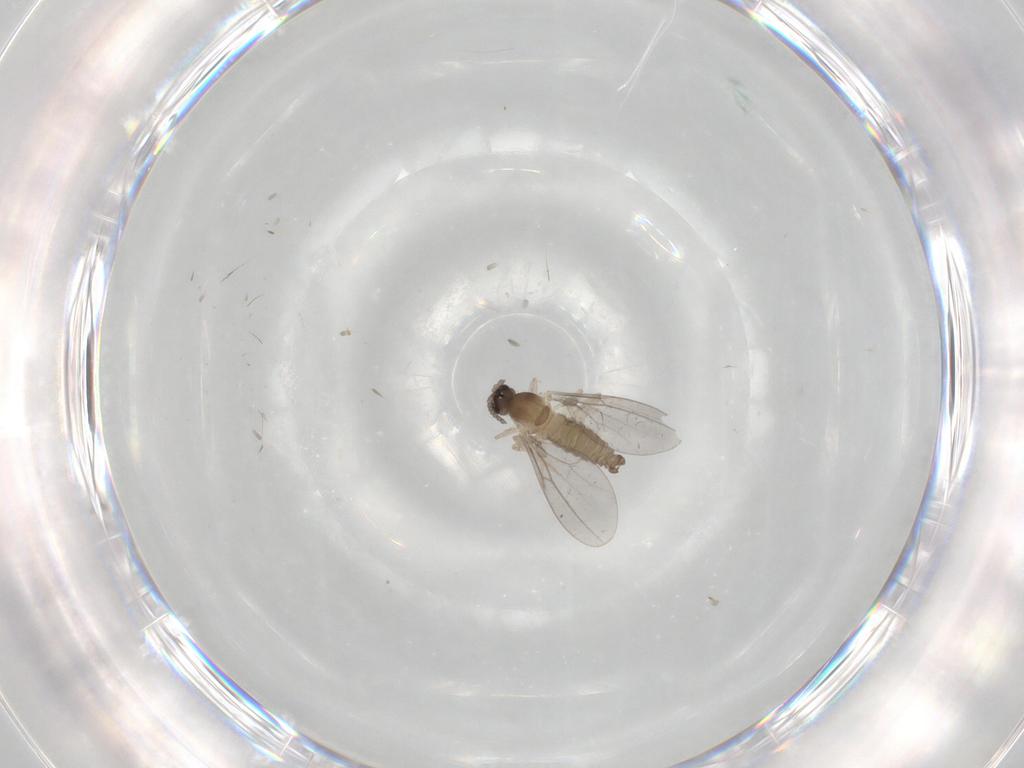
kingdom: Animalia
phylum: Arthropoda
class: Insecta
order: Diptera
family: Cecidomyiidae
